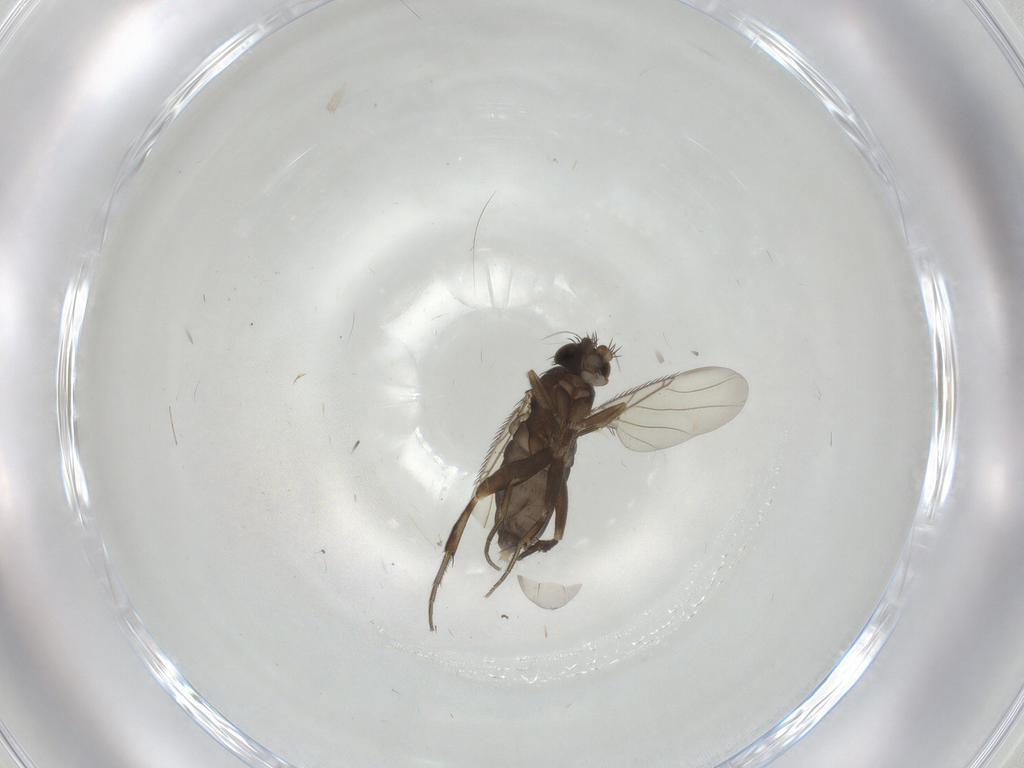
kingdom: Animalia
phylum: Arthropoda
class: Insecta
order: Diptera
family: Phoridae
